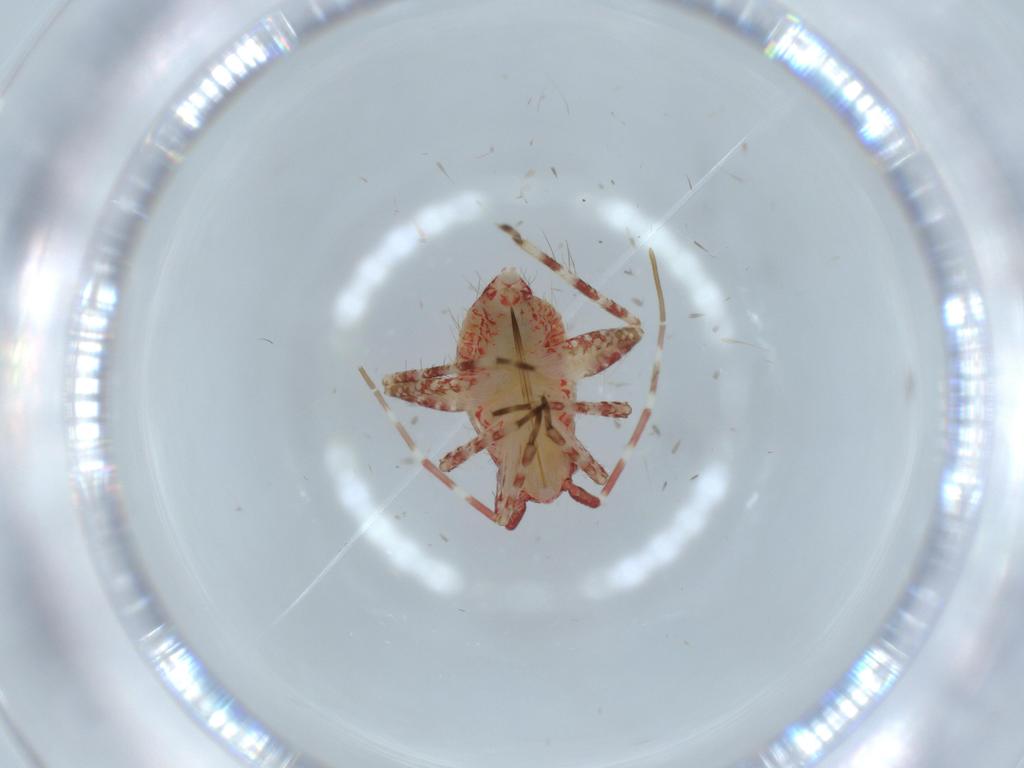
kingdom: Animalia
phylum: Arthropoda
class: Insecta
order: Hemiptera
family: Miridae
